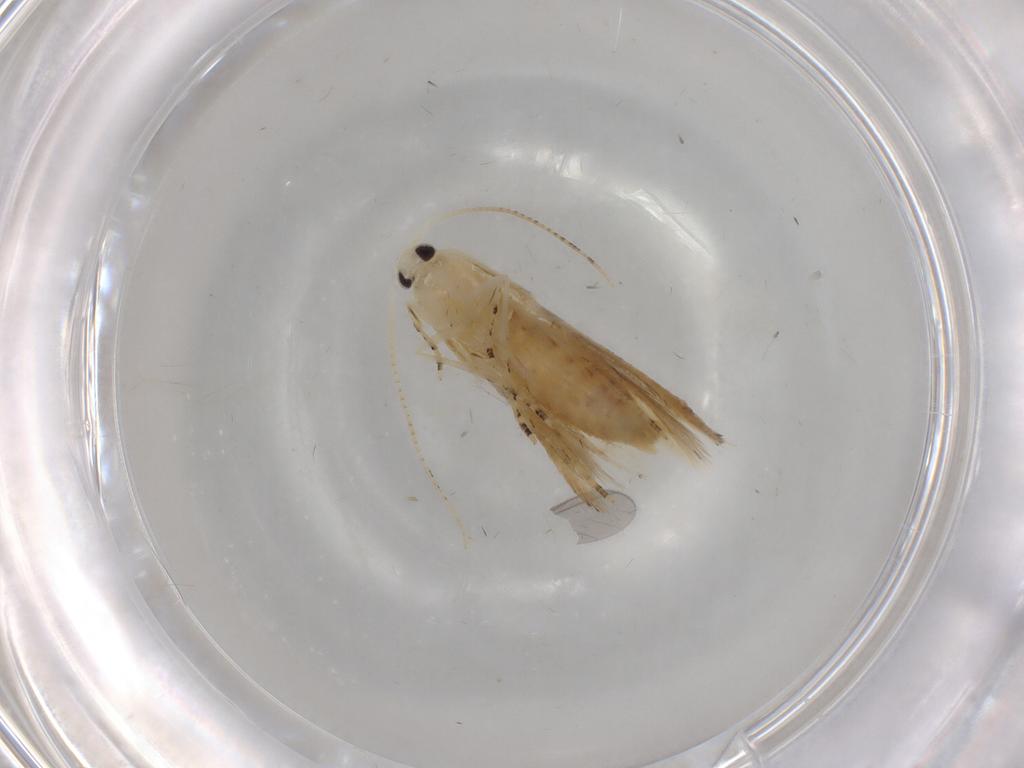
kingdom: Animalia
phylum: Arthropoda
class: Insecta
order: Lepidoptera
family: Bucculatricidae
